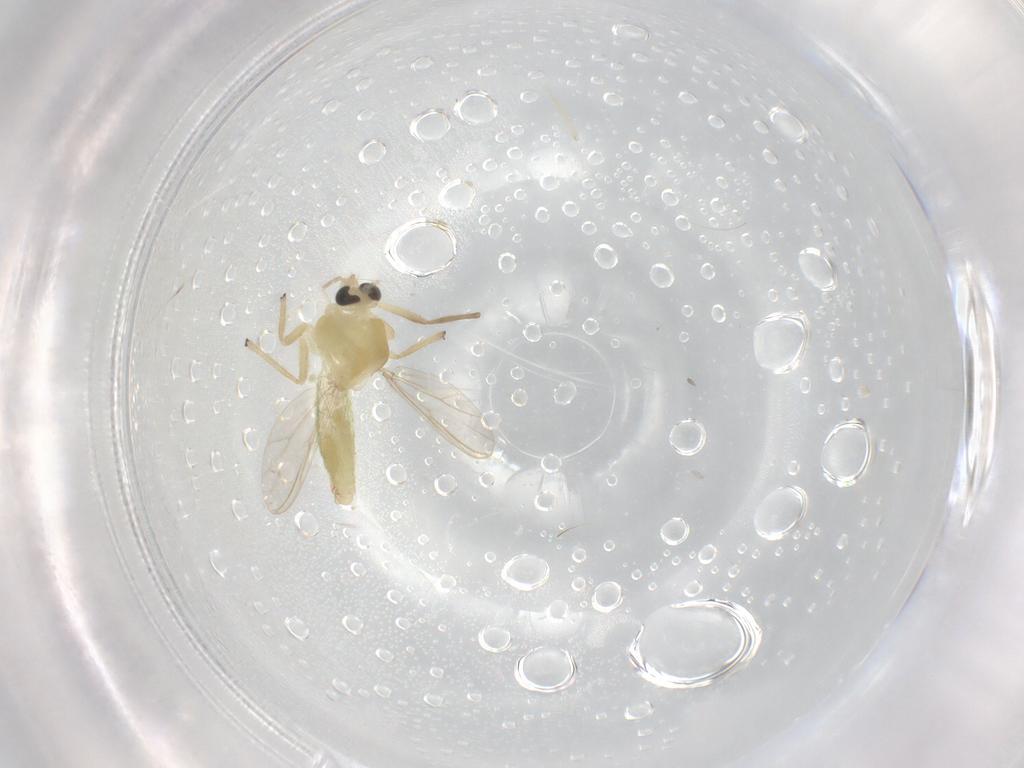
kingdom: Animalia
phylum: Arthropoda
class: Insecta
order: Diptera
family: Chironomidae
